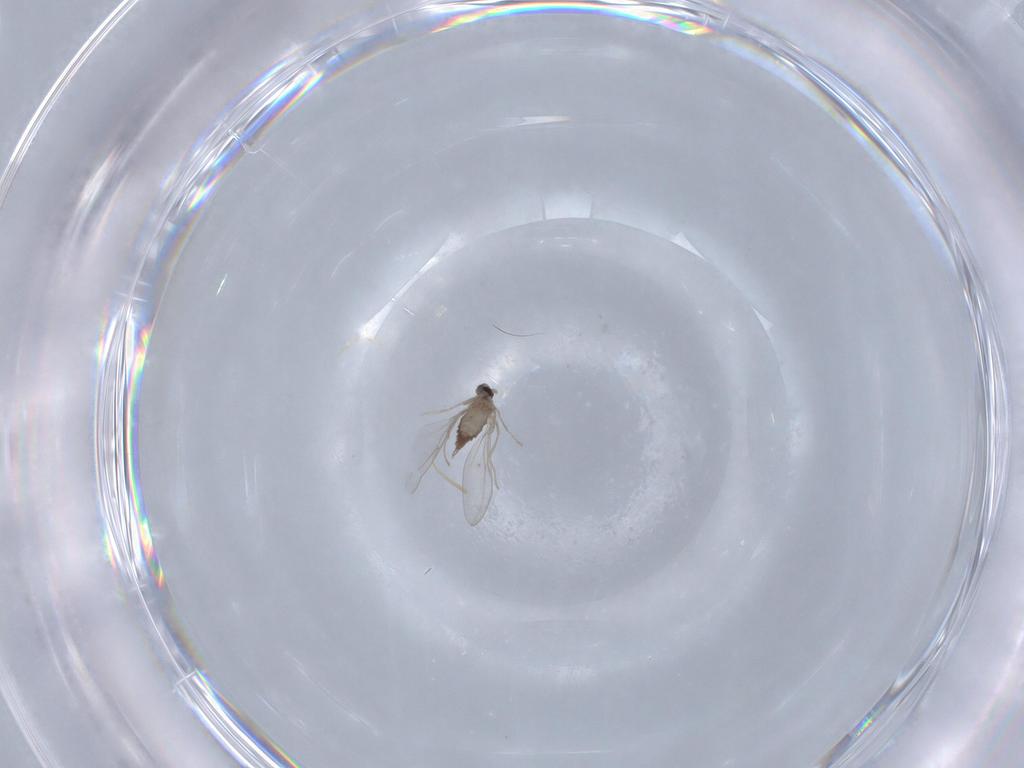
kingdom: Animalia
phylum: Arthropoda
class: Insecta
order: Diptera
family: Cecidomyiidae
